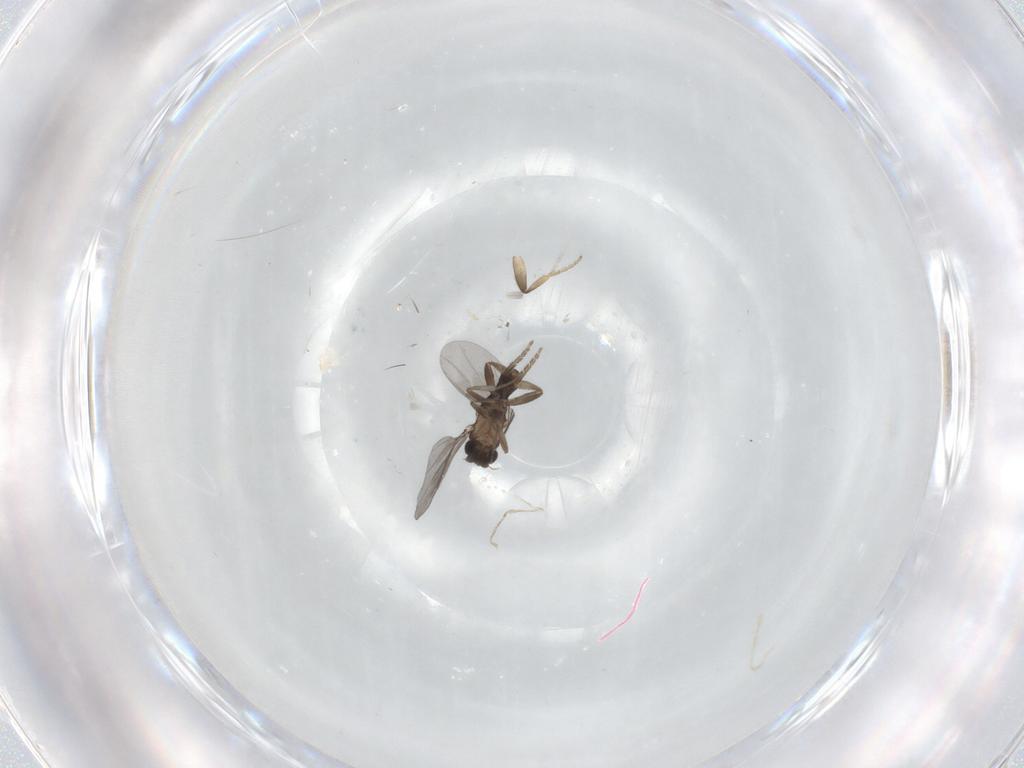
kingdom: Animalia
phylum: Arthropoda
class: Insecta
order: Diptera
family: Cecidomyiidae
